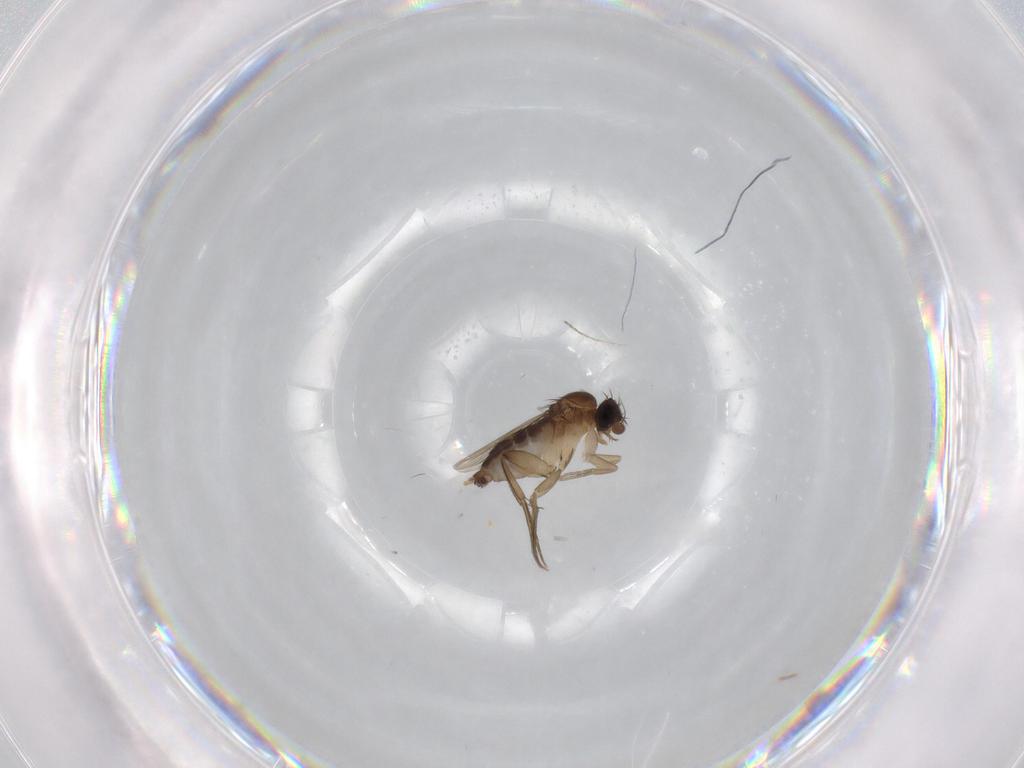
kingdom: Animalia
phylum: Arthropoda
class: Insecta
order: Diptera
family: Phoridae
